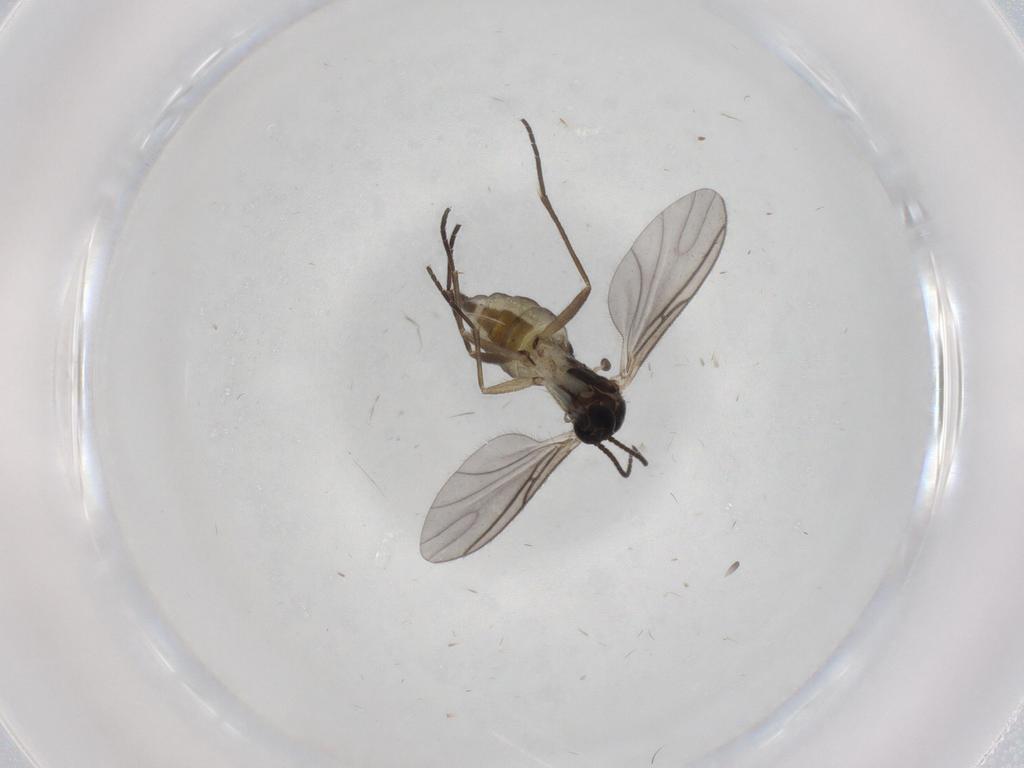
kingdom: Animalia
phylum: Arthropoda
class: Insecta
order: Diptera
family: Sciaridae
